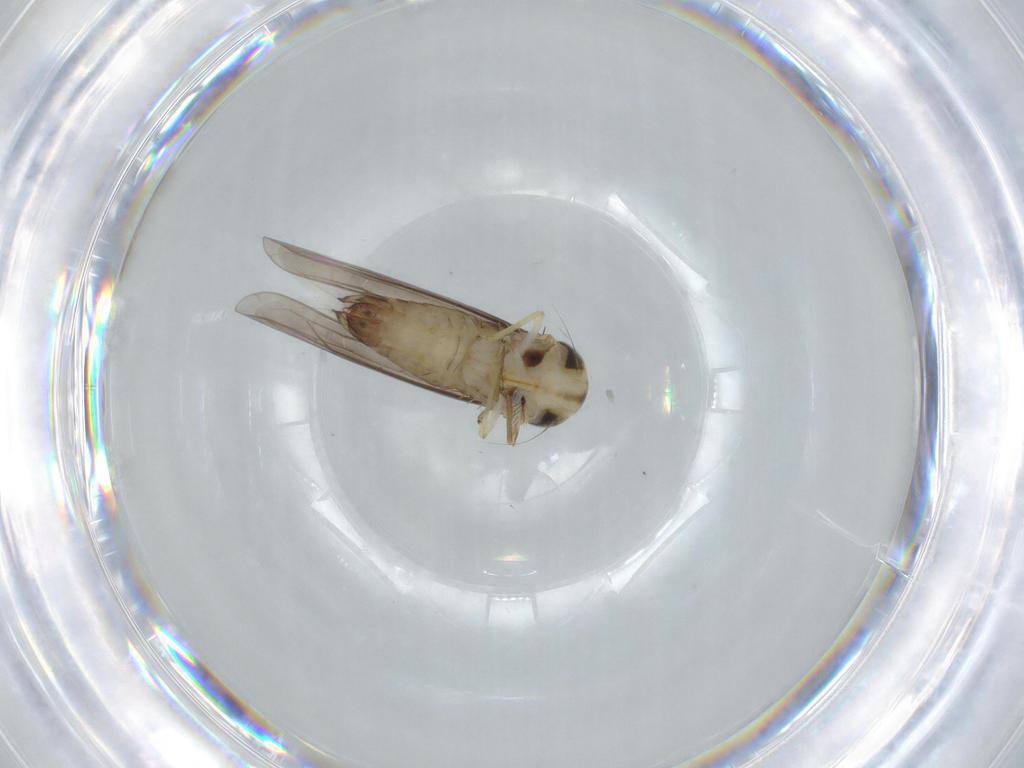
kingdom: Animalia
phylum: Arthropoda
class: Insecta
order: Hemiptera
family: Cicadellidae
